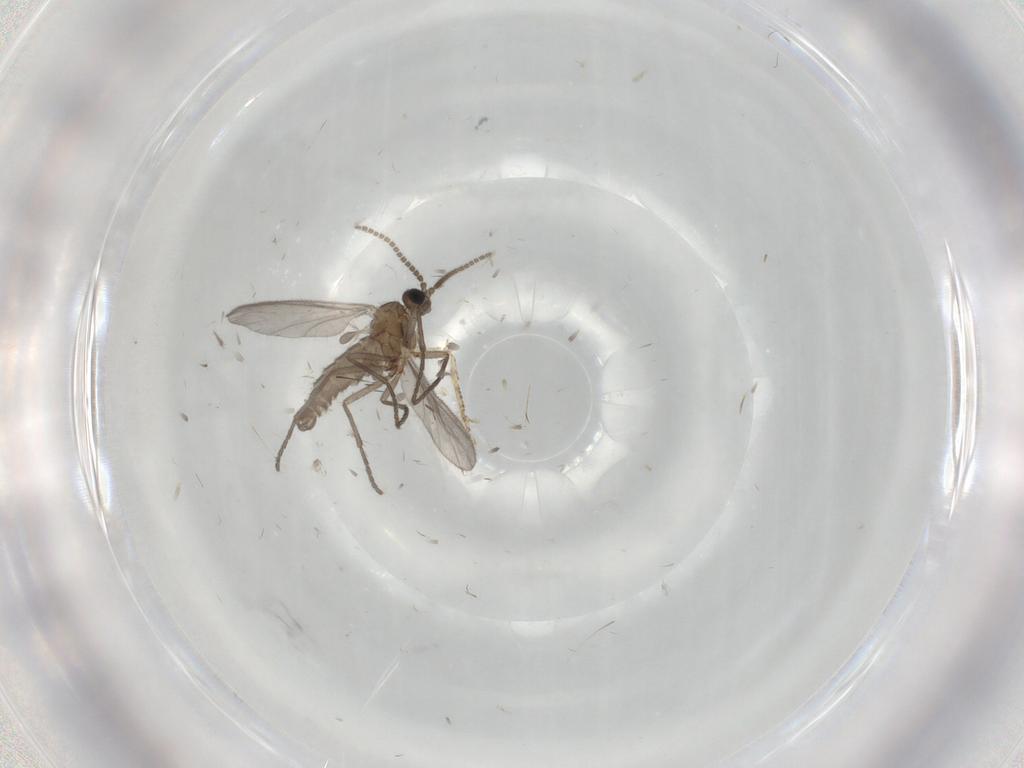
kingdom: Animalia
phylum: Arthropoda
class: Insecta
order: Diptera
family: Sciaridae
